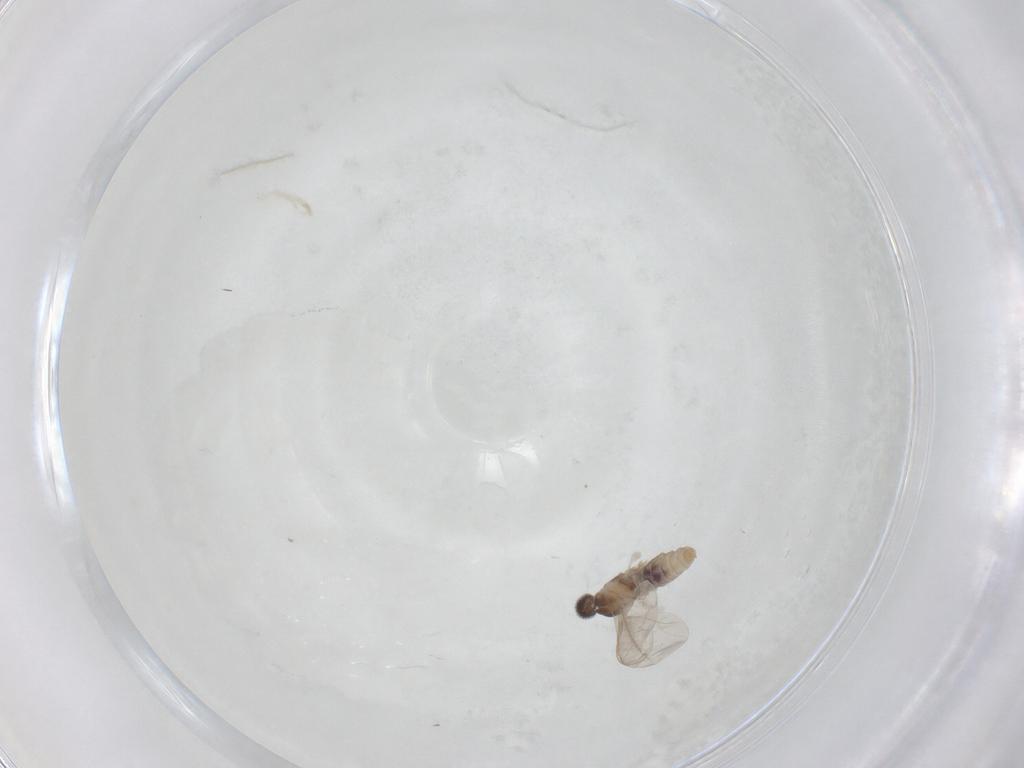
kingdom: Animalia
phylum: Arthropoda
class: Insecta
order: Diptera
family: Cecidomyiidae
